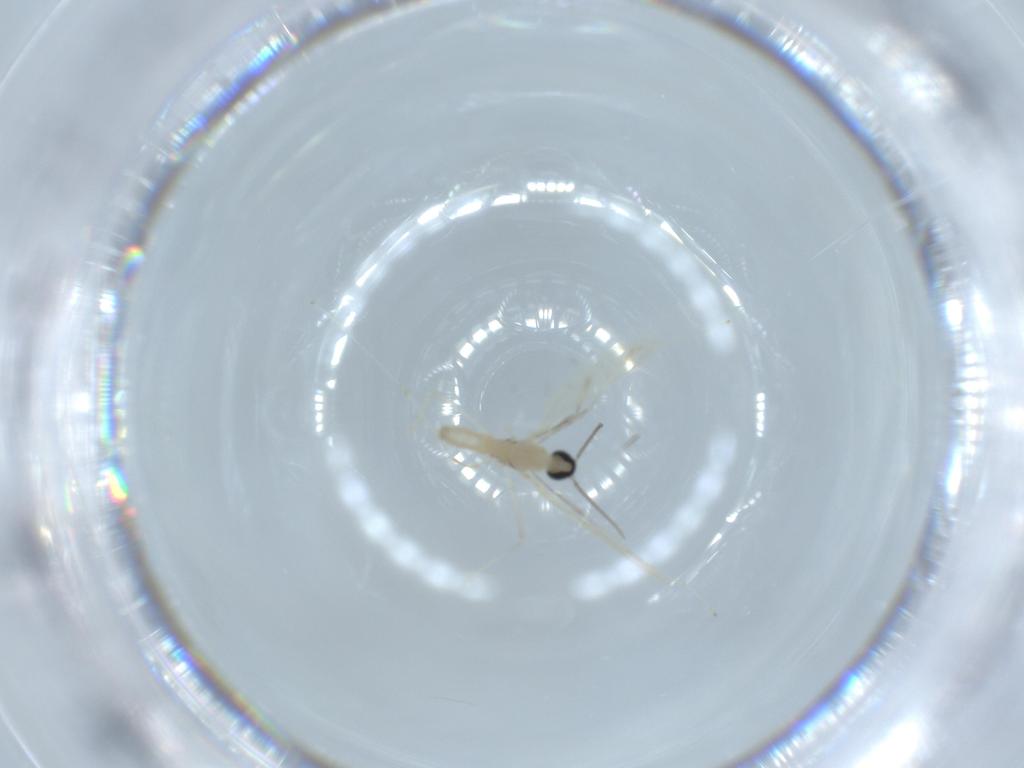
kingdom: Animalia
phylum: Arthropoda
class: Insecta
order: Diptera
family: Cecidomyiidae
